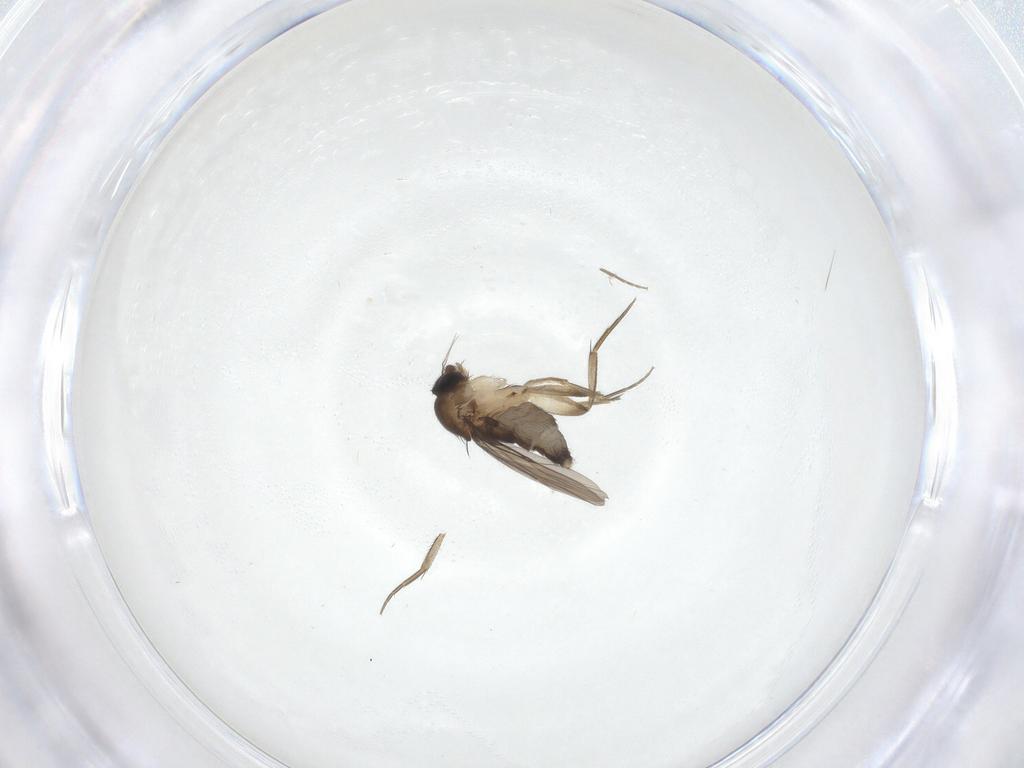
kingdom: Animalia
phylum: Arthropoda
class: Insecta
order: Diptera
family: Phoridae
